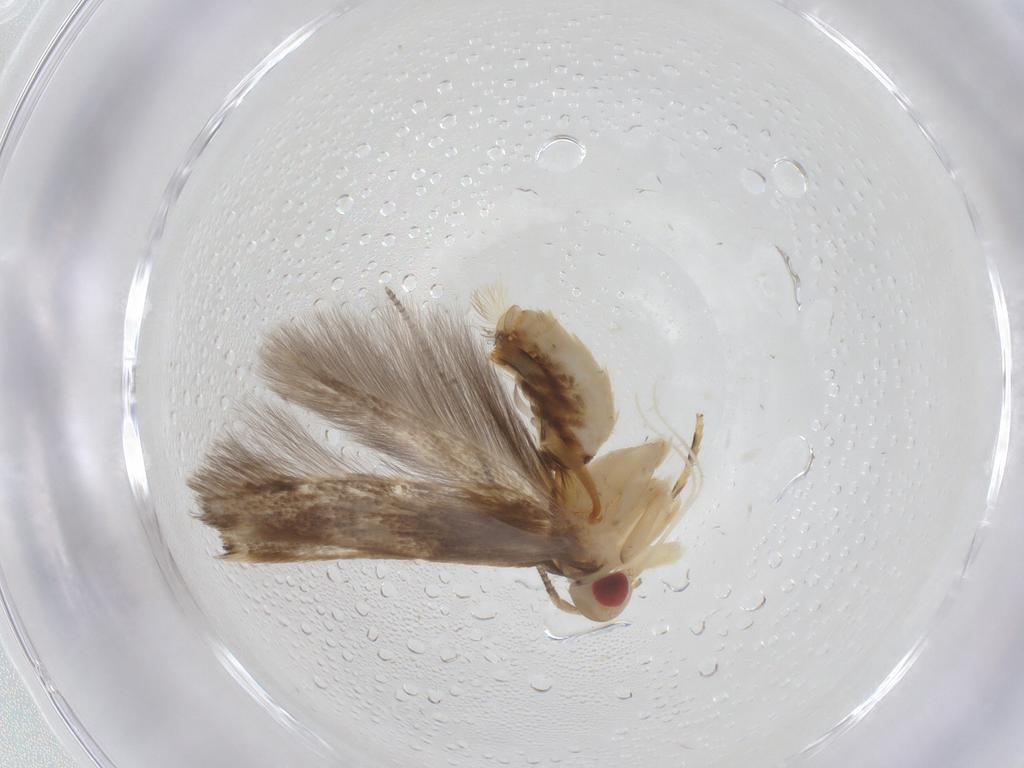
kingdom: Animalia
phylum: Arthropoda
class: Insecta
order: Lepidoptera
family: Cosmopterigidae
